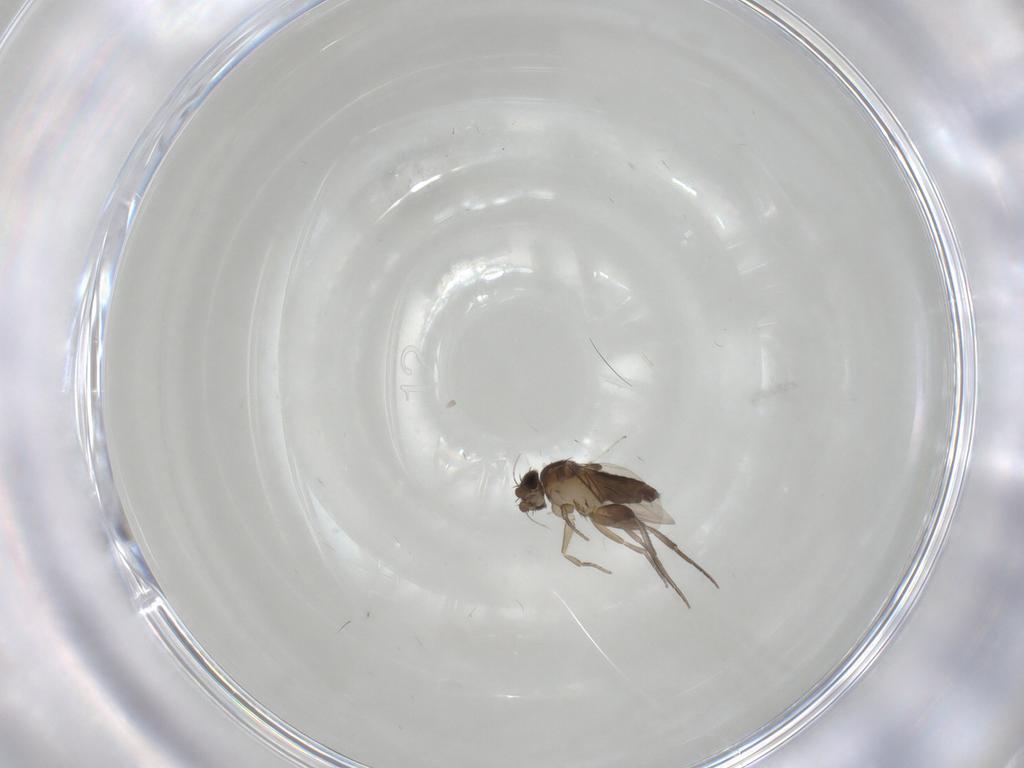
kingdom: Animalia
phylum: Arthropoda
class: Insecta
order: Diptera
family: Phoridae
